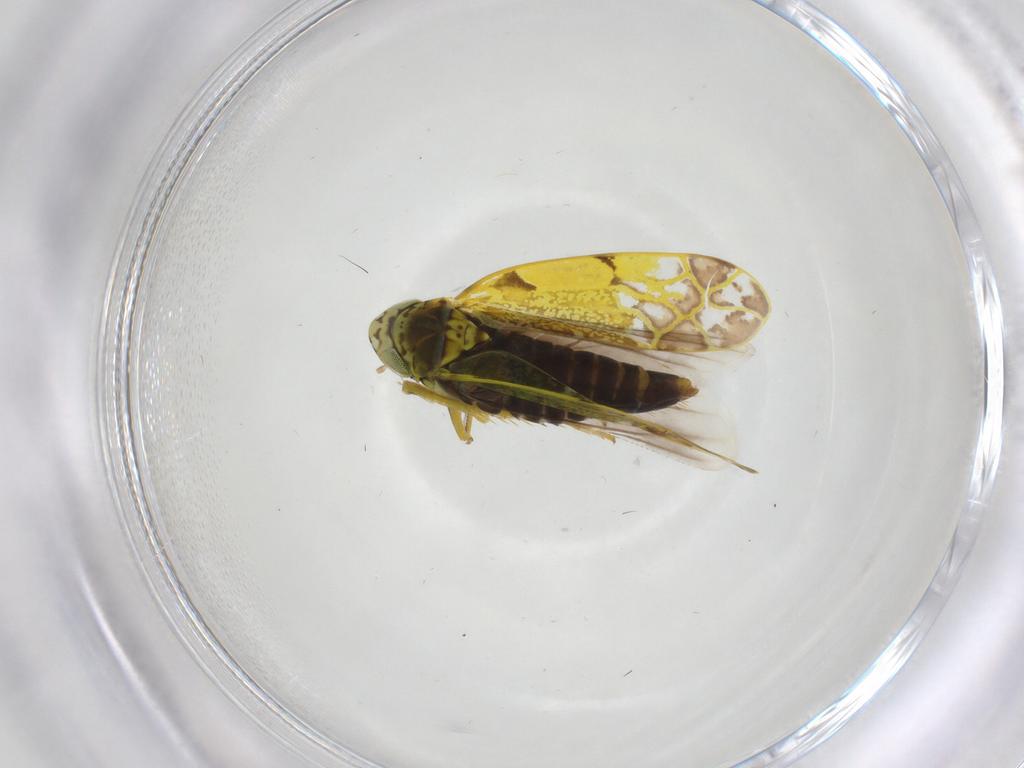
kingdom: Animalia
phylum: Arthropoda
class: Insecta
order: Hemiptera
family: Cicadellidae
